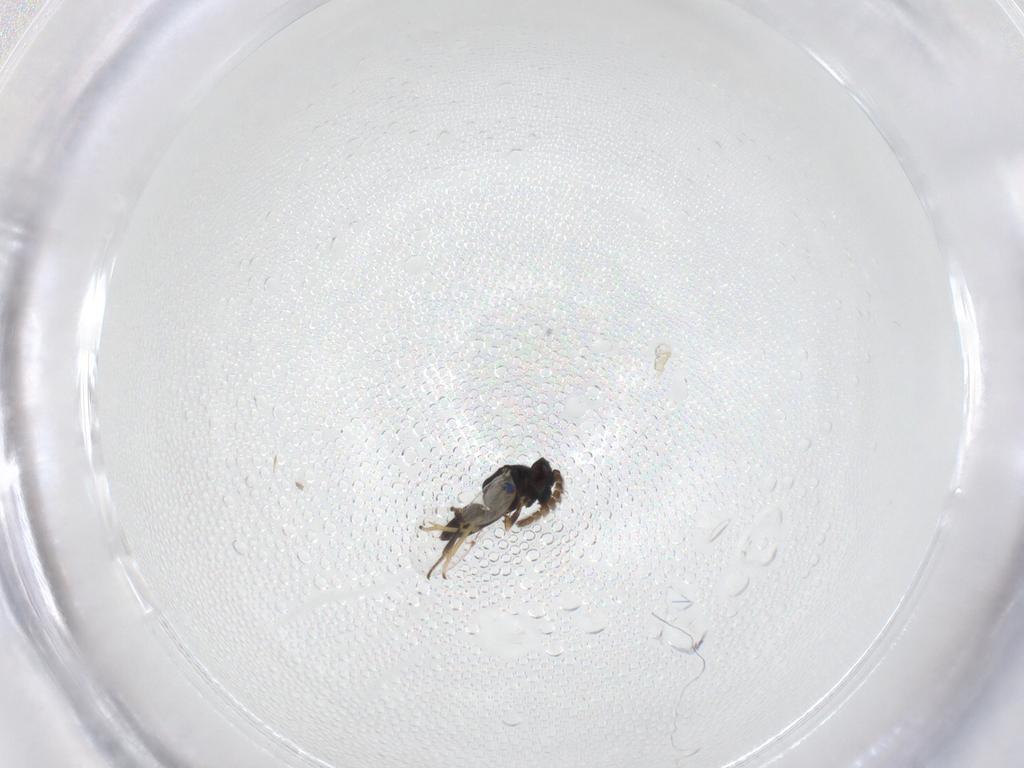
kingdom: Animalia
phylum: Arthropoda
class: Insecta
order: Hymenoptera
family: Encyrtidae
